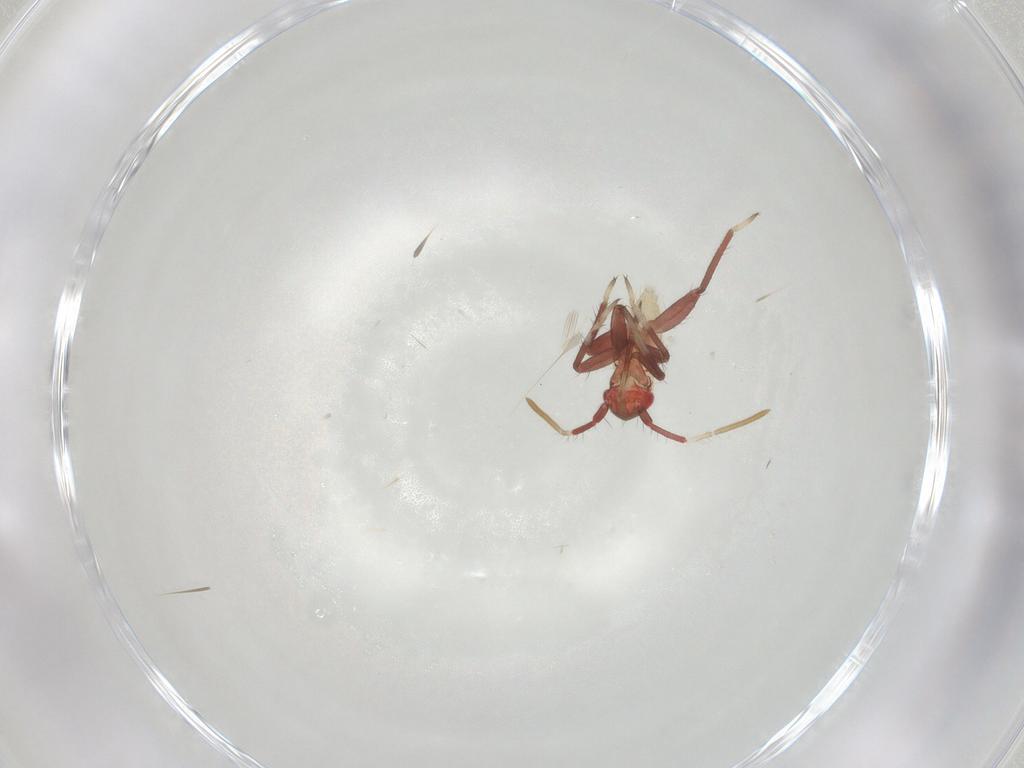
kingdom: Animalia
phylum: Arthropoda
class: Insecta
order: Hemiptera
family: Miridae
